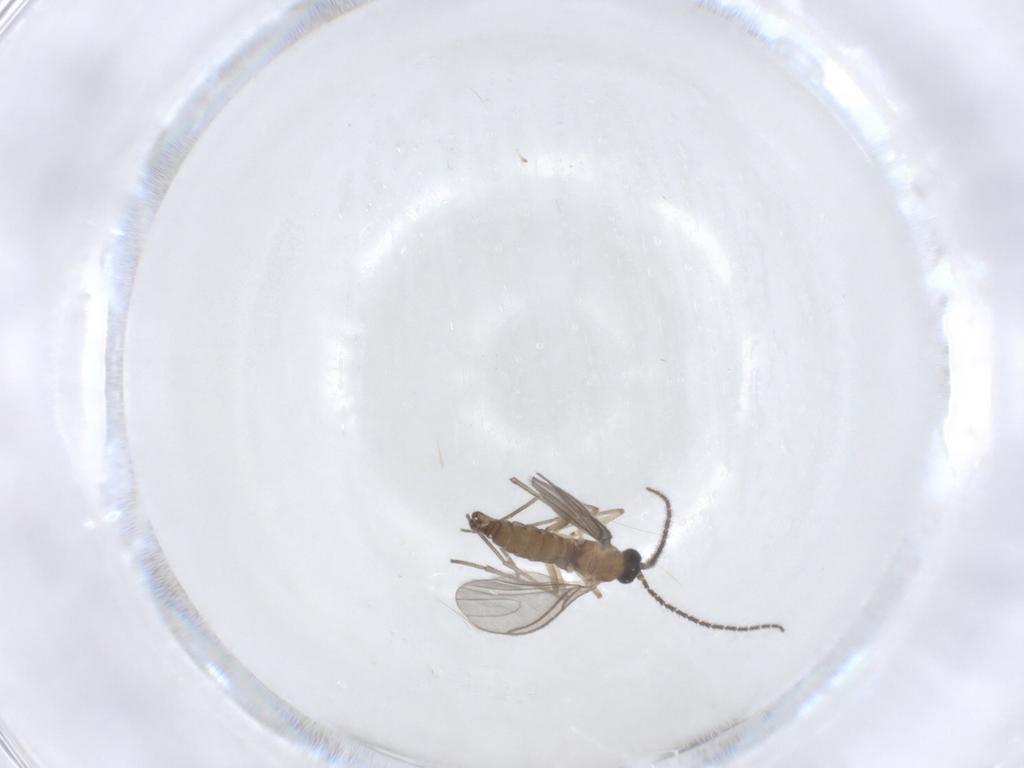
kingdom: Animalia
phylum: Arthropoda
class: Insecta
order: Diptera
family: Sciaridae
